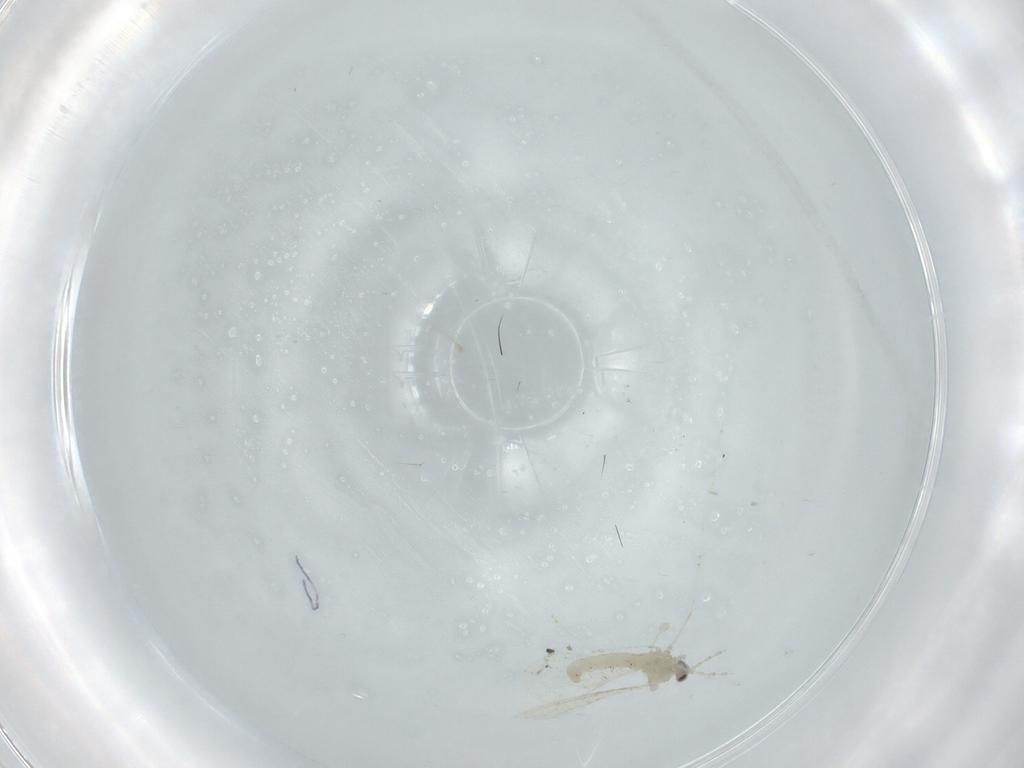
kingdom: Animalia
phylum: Arthropoda
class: Insecta
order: Diptera
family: Cecidomyiidae
